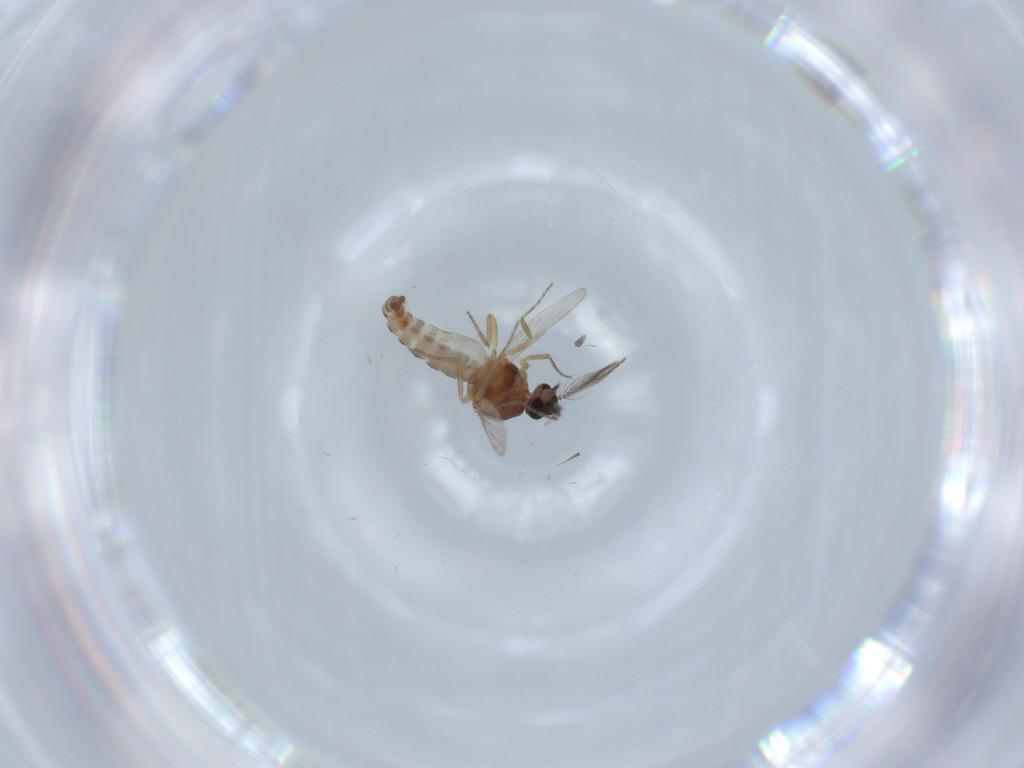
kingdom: Animalia
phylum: Arthropoda
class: Insecta
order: Diptera
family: Ceratopogonidae
